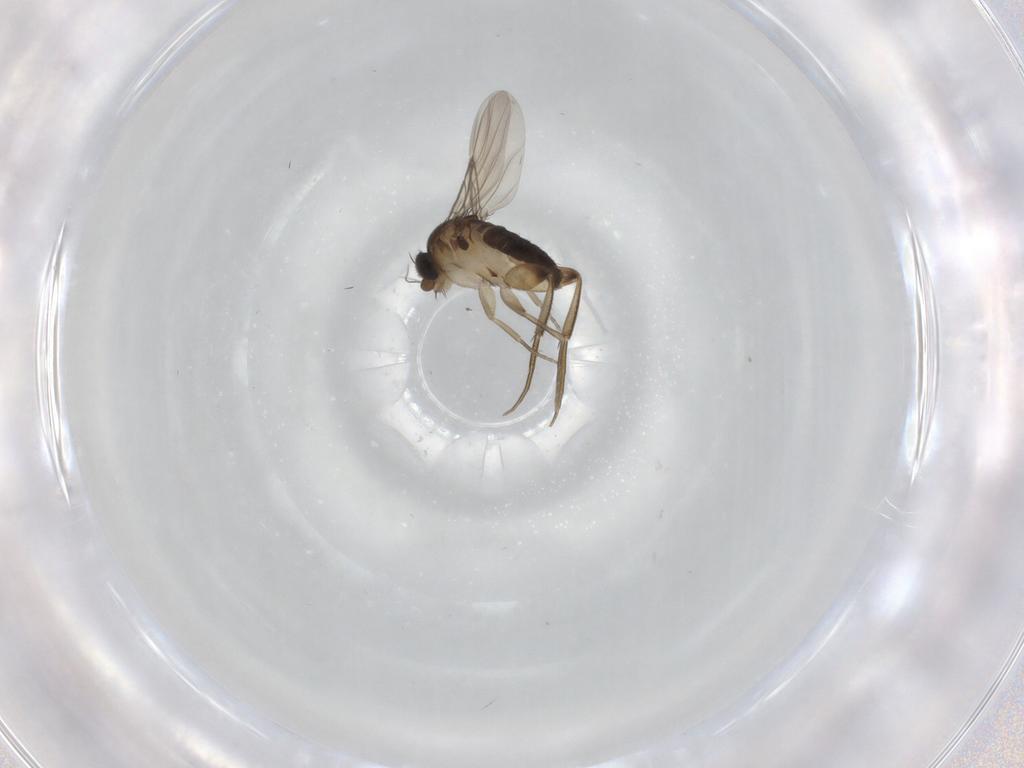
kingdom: Animalia
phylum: Arthropoda
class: Insecta
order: Diptera
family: Phoridae
